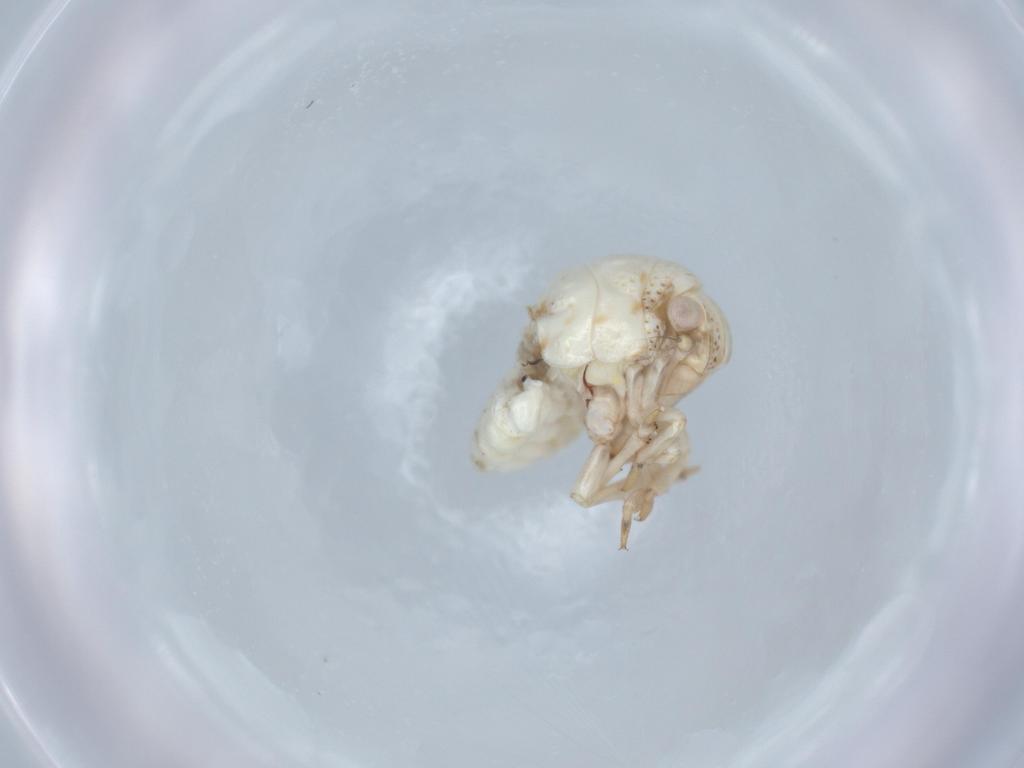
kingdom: Animalia
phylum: Arthropoda
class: Insecta
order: Hemiptera
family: Acanaloniidae
